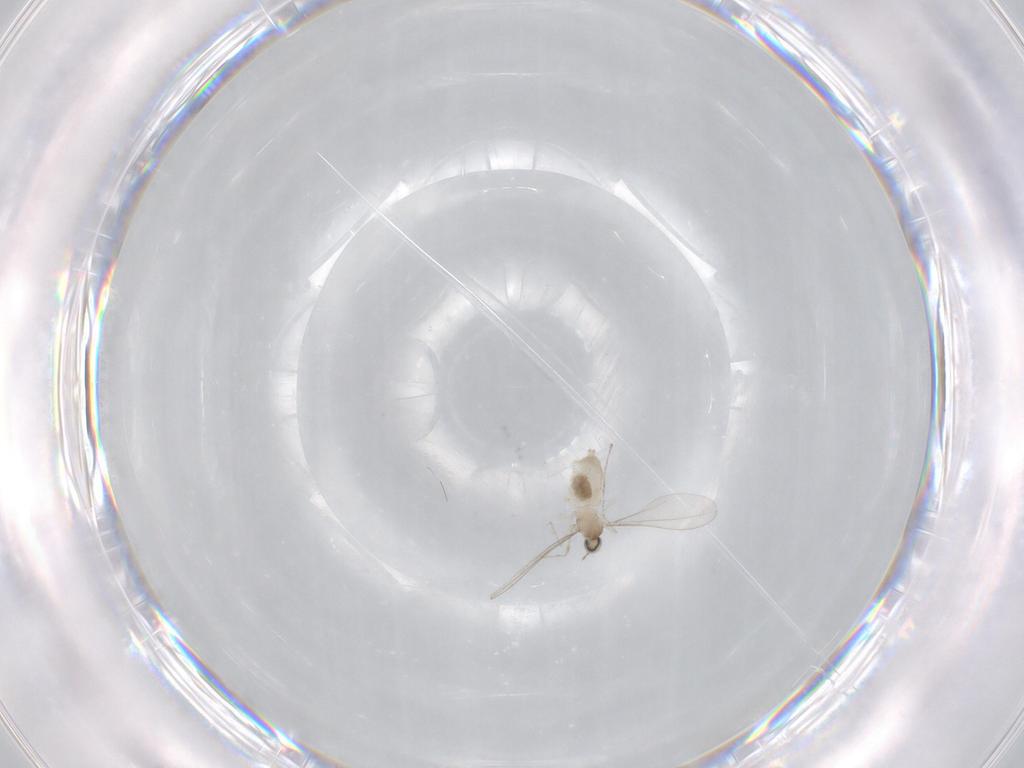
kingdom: Animalia
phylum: Arthropoda
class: Insecta
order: Diptera
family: Cecidomyiidae
